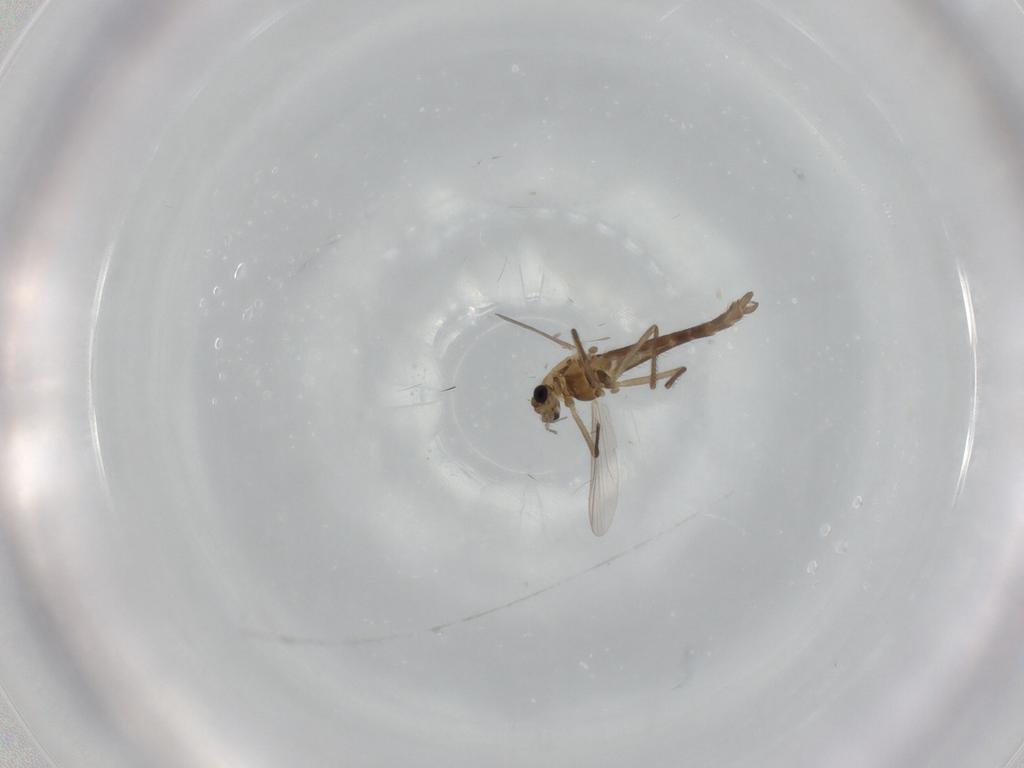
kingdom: Animalia
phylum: Arthropoda
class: Insecta
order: Diptera
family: Chironomidae
